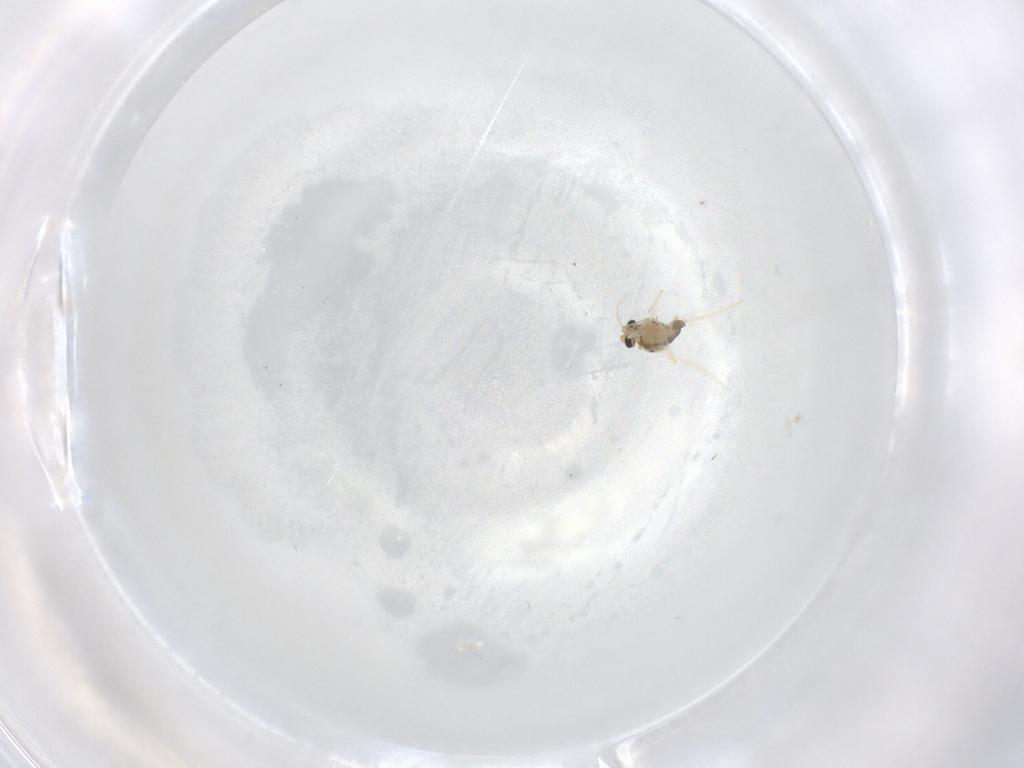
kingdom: Animalia
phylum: Arthropoda
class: Insecta
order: Diptera
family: Chironomidae
